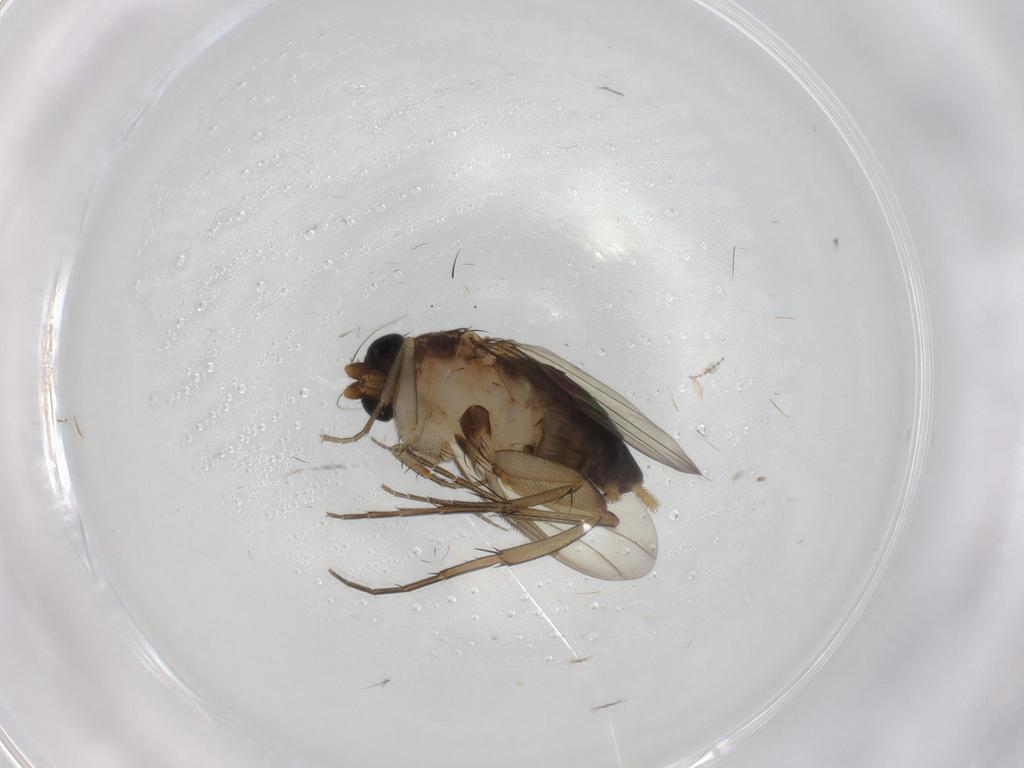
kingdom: Animalia
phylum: Arthropoda
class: Insecta
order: Diptera
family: Phoridae
